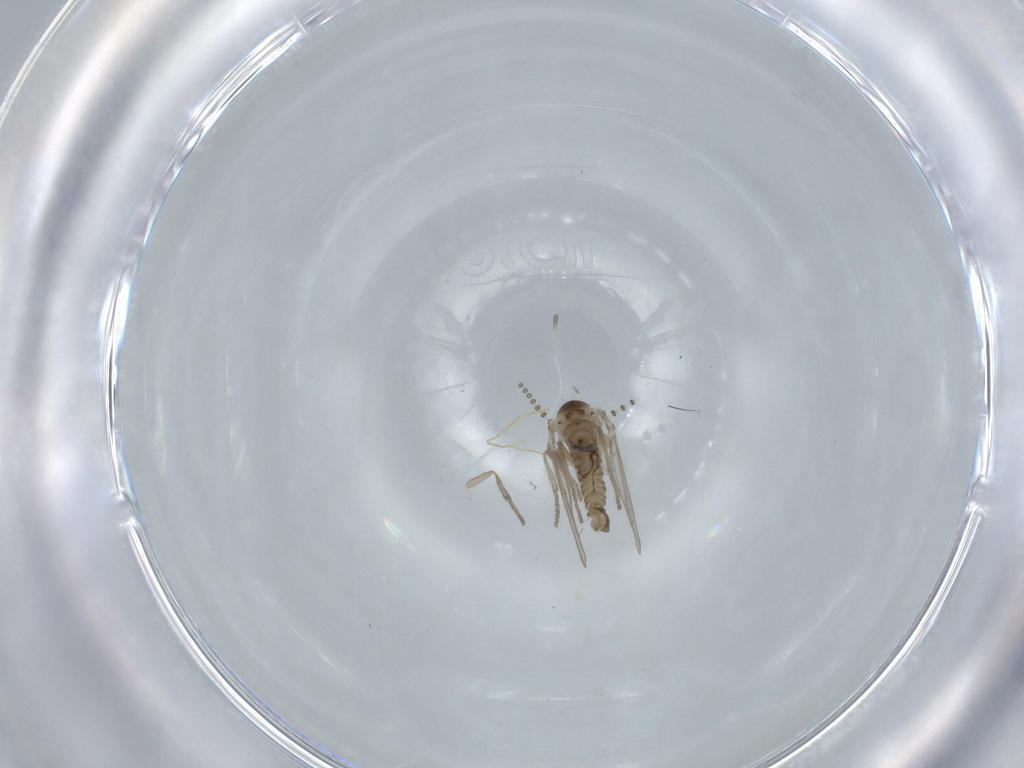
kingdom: Animalia
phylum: Arthropoda
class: Insecta
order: Diptera
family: Psychodidae
